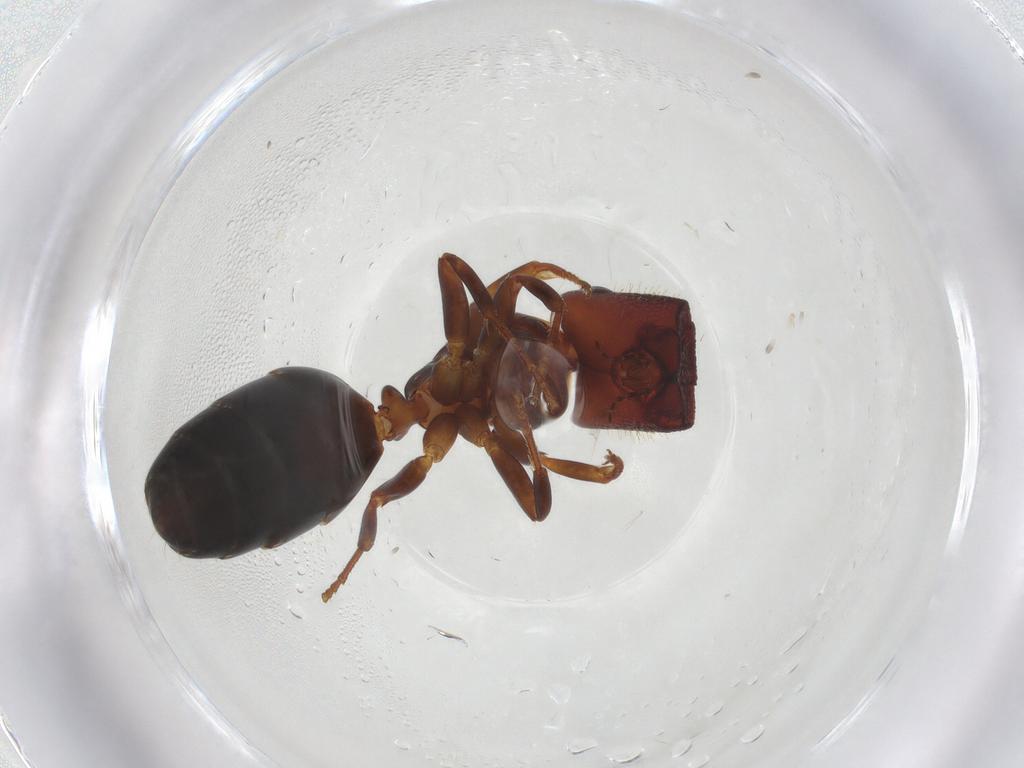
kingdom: Animalia
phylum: Arthropoda
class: Insecta
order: Hymenoptera
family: Formicidae
